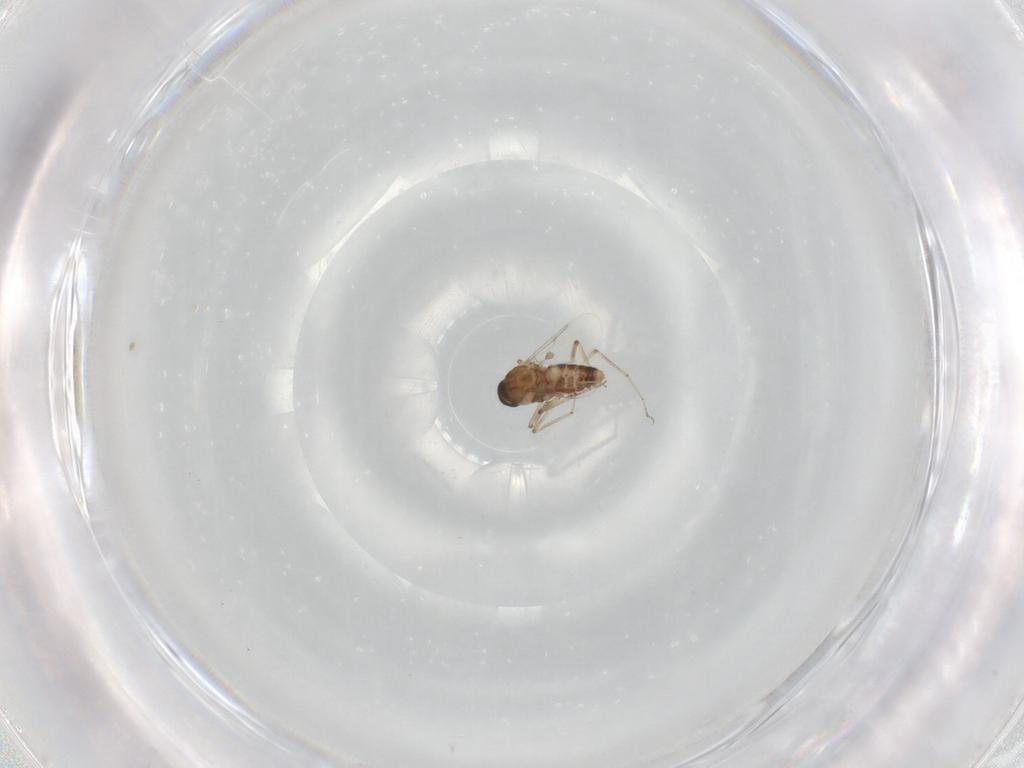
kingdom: Animalia
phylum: Arthropoda
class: Insecta
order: Diptera
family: Ceratopogonidae
